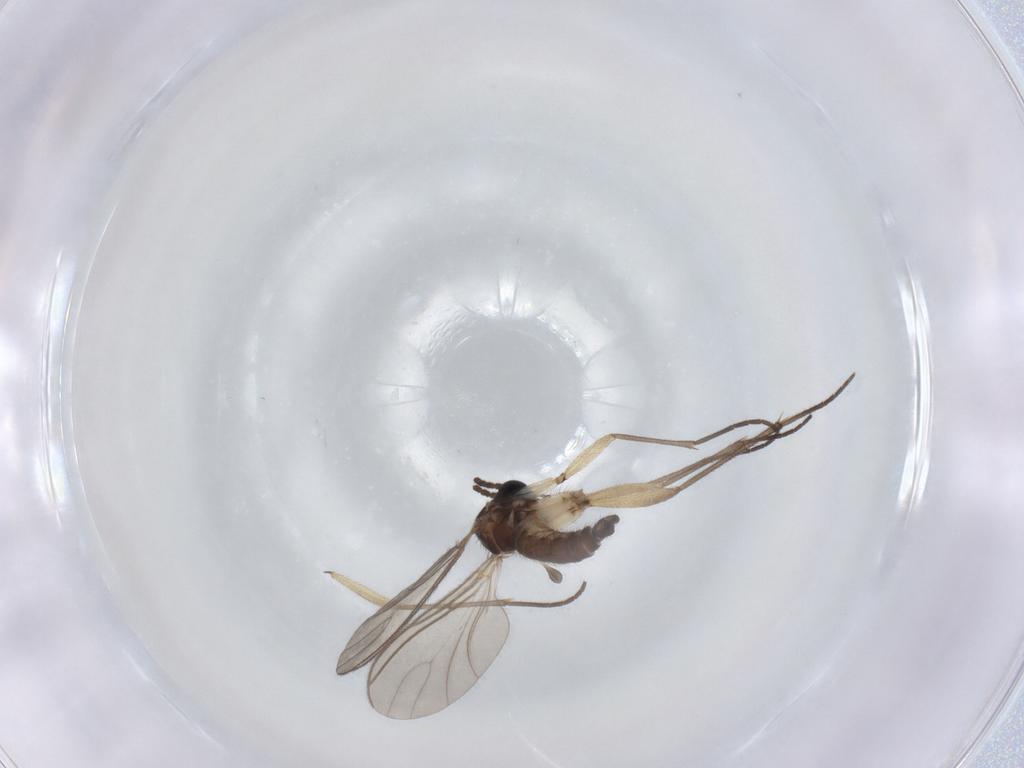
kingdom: Animalia
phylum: Arthropoda
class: Insecta
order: Diptera
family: Sciaridae
